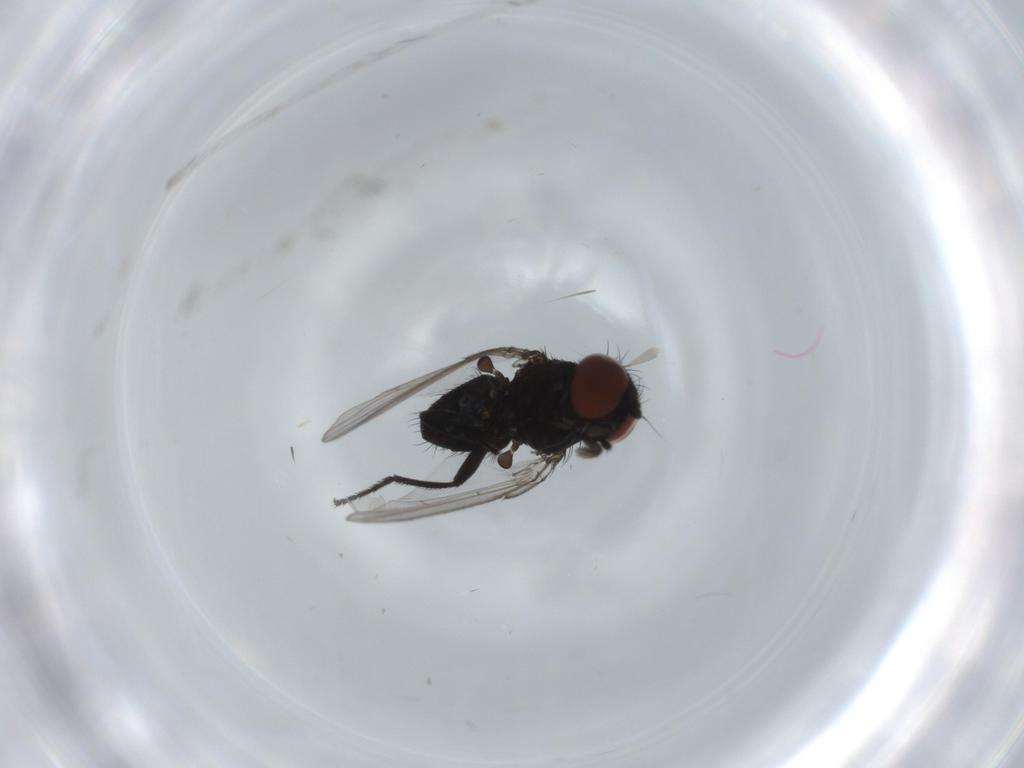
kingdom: Animalia
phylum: Arthropoda
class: Insecta
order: Diptera
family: Milichiidae
